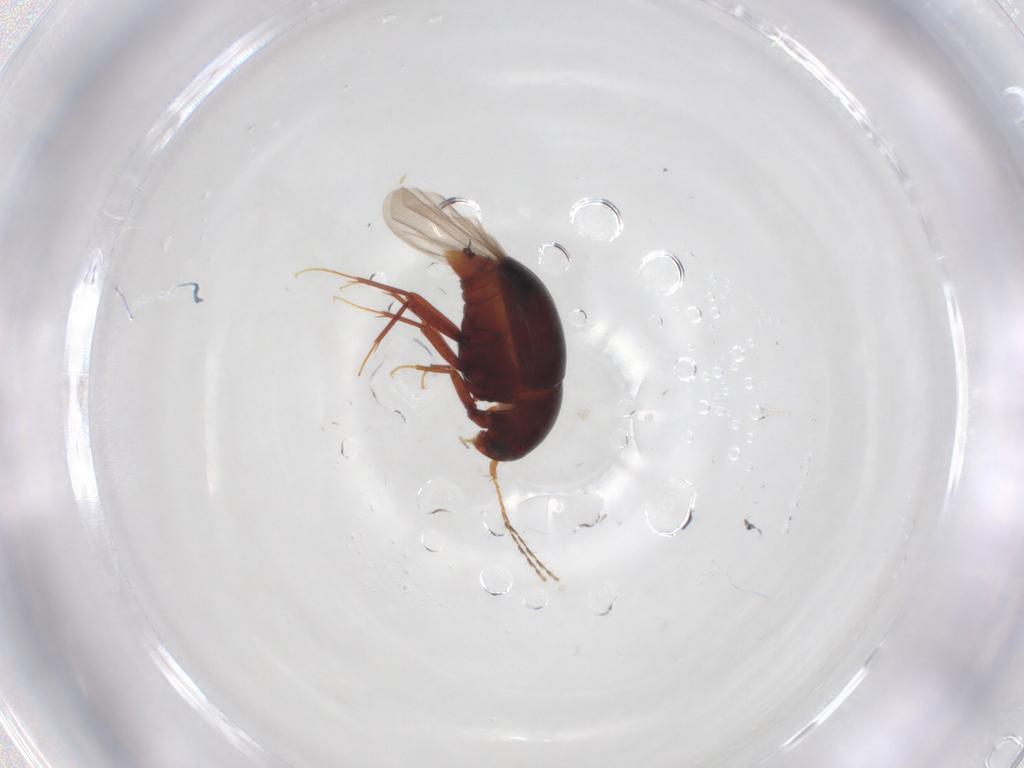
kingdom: Animalia
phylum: Arthropoda
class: Insecta
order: Coleoptera
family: Staphylinidae
